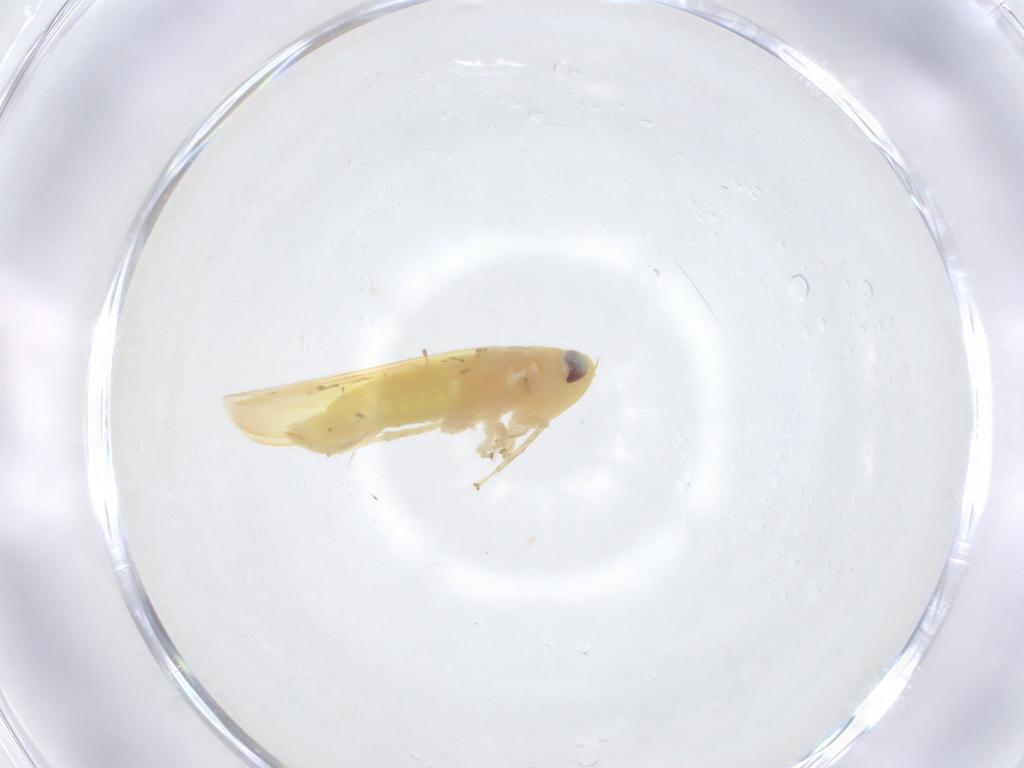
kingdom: Animalia
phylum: Arthropoda
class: Insecta
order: Hemiptera
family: Cicadellidae
